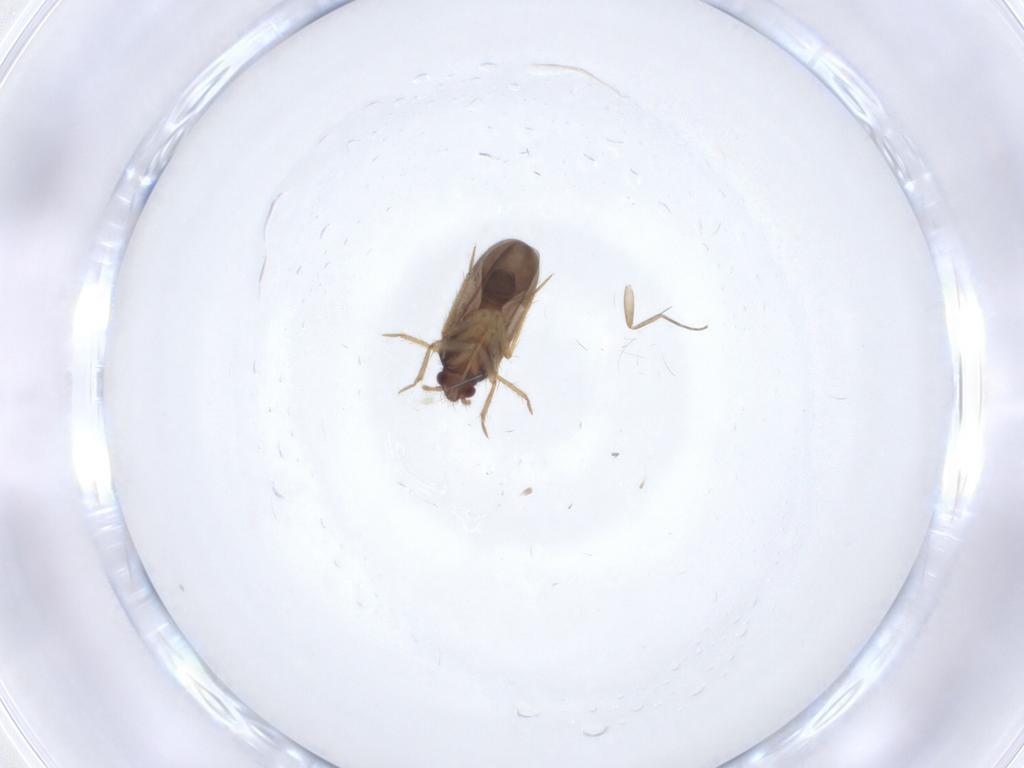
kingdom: Animalia
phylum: Arthropoda
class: Insecta
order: Hemiptera
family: Ceratocombidae
